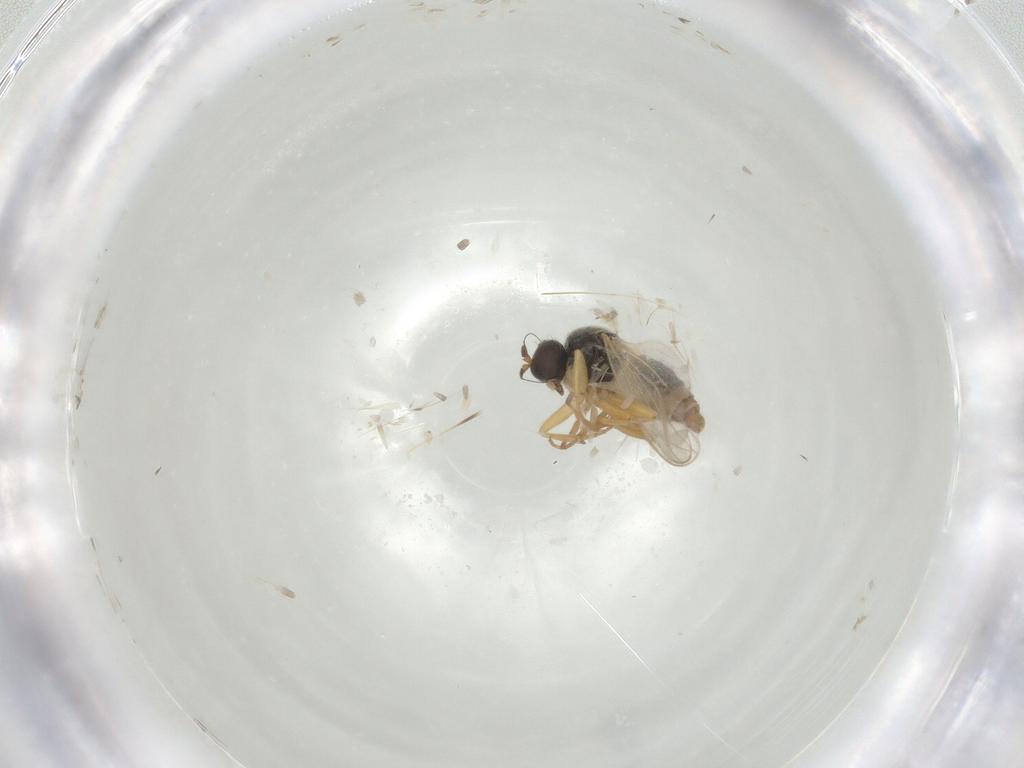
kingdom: Animalia
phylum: Arthropoda
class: Insecta
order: Diptera
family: Hybotidae
